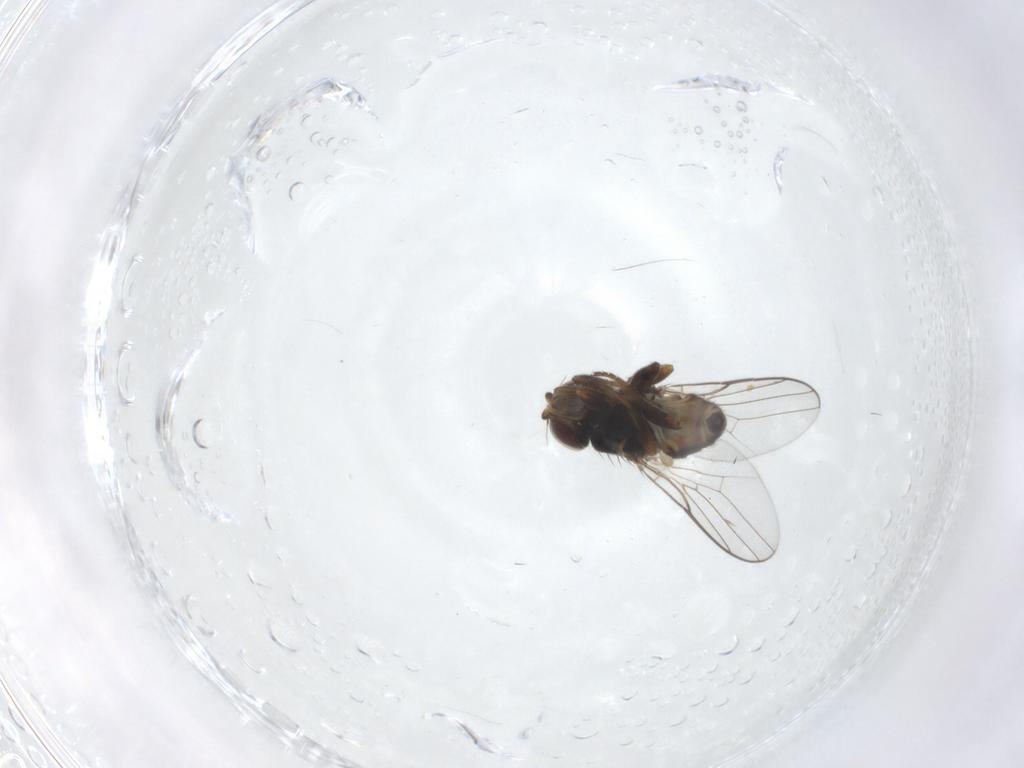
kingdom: Animalia
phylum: Arthropoda
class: Insecta
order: Diptera
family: Chloropidae
